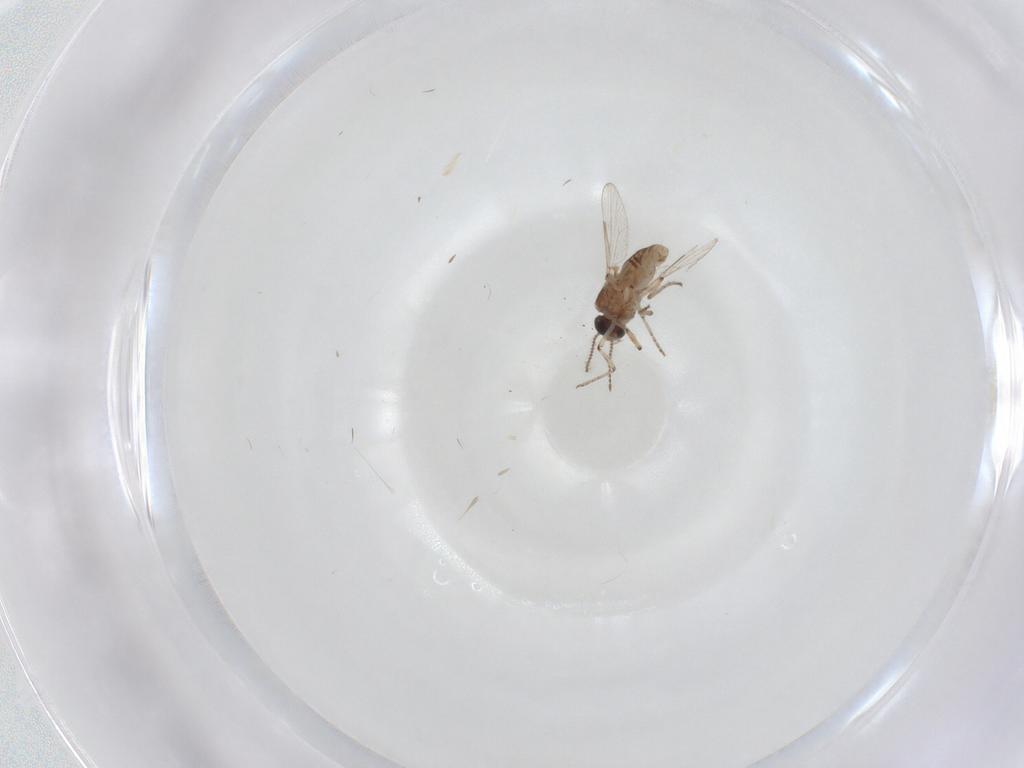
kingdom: Animalia
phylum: Arthropoda
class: Insecta
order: Diptera
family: Ceratopogonidae
